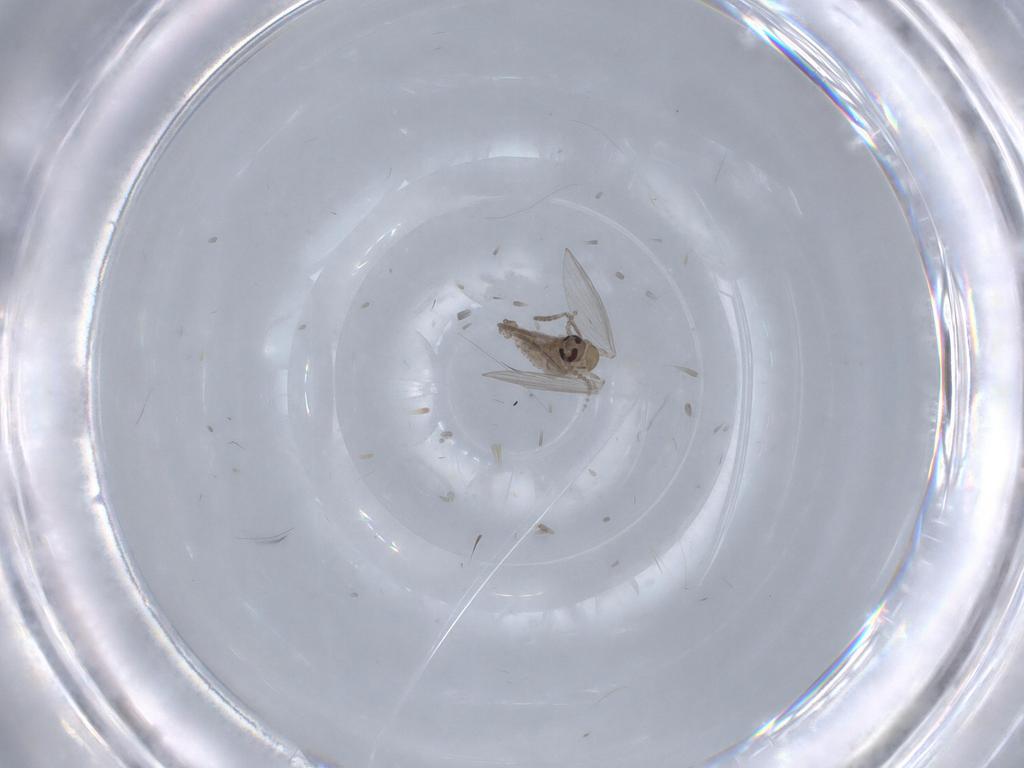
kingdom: Animalia
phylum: Arthropoda
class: Insecta
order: Diptera
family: Psychodidae
